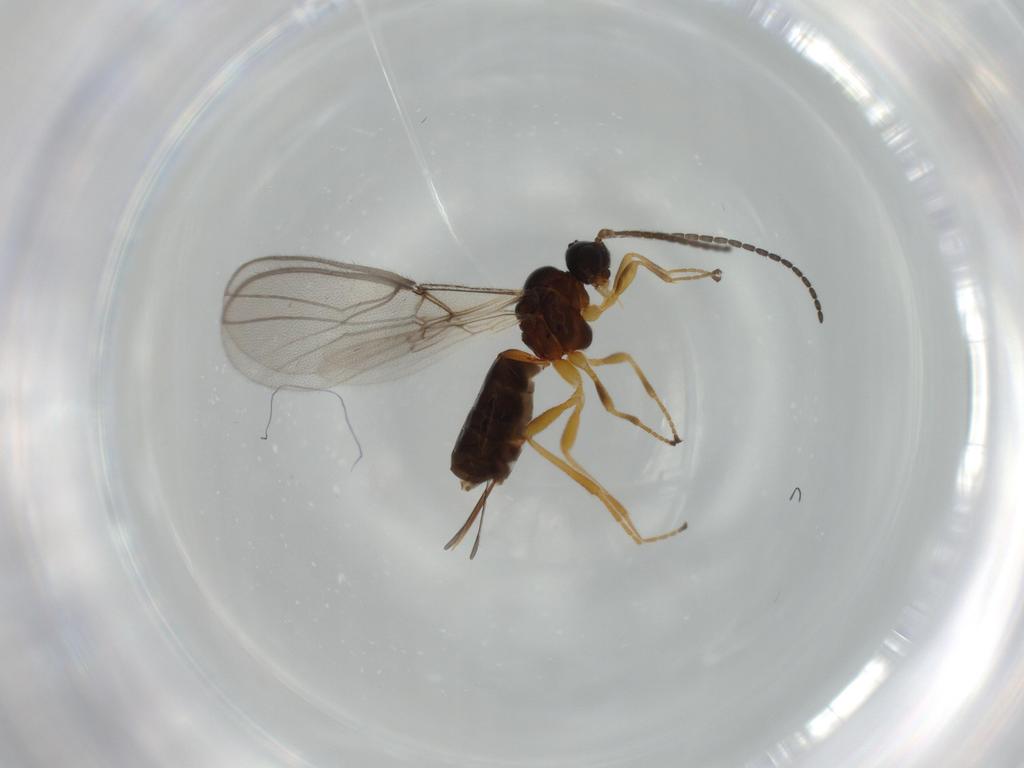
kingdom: Animalia
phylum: Arthropoda
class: Insecta
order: Hymenoptera
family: Braconidae
